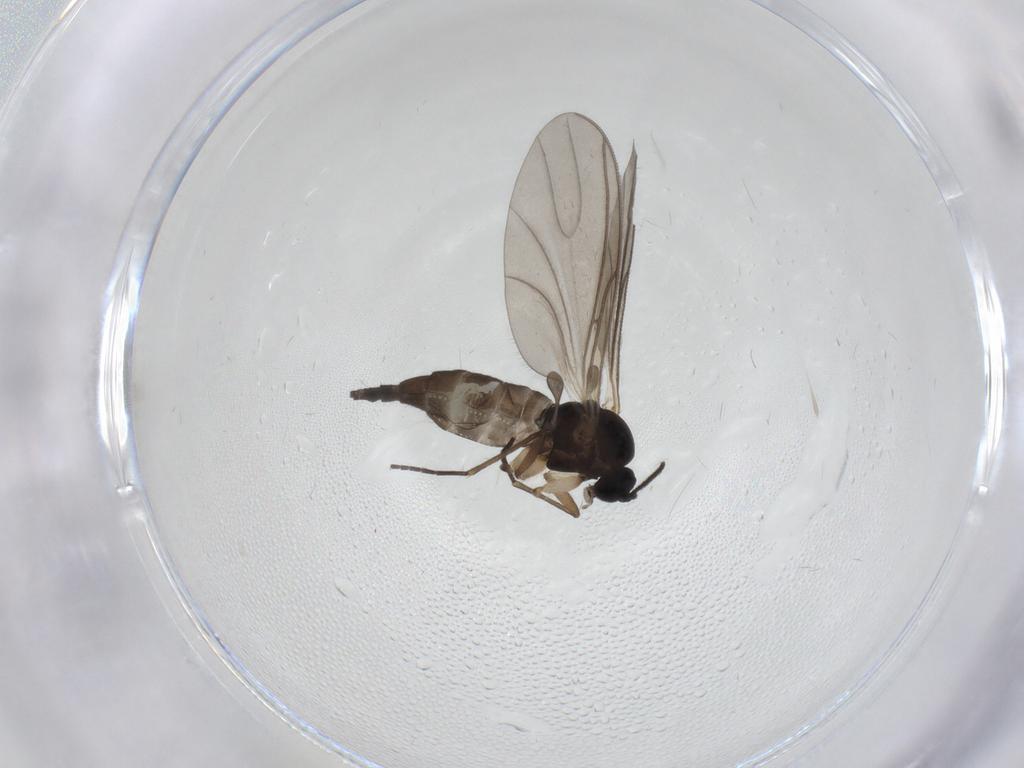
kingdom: Animalia
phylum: Arthropoda
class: Insecta
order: Diptera
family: Sciaridae
